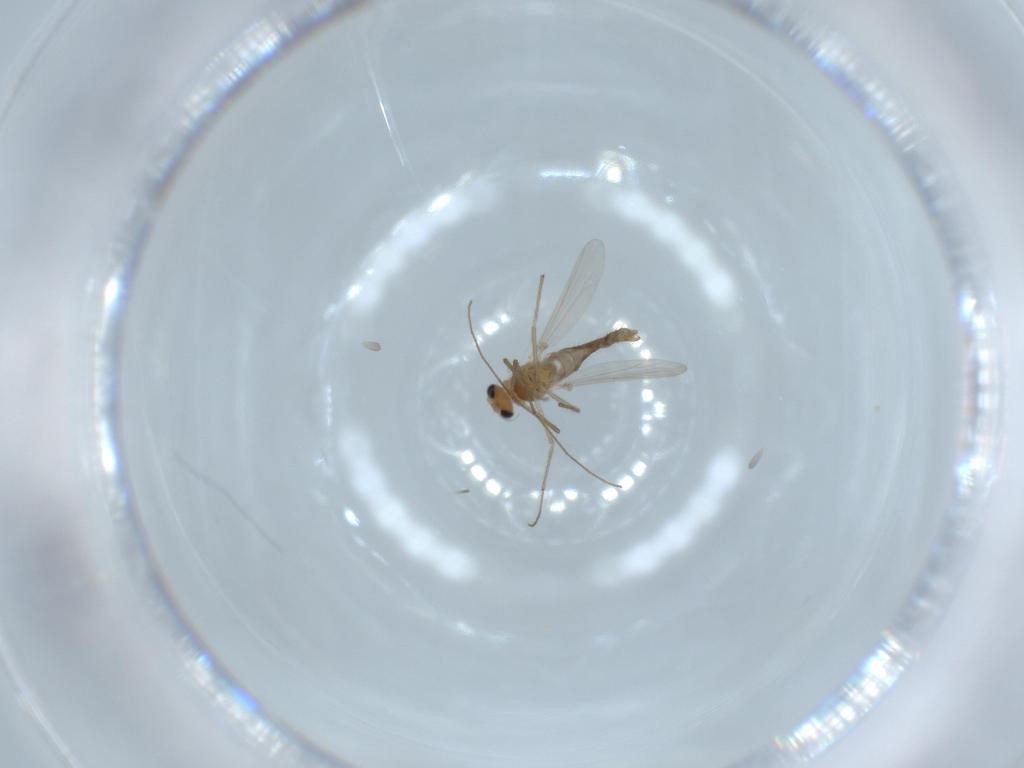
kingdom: Animalia
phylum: Arthropoda
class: Insecta
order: Diptera
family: Chironomidae
